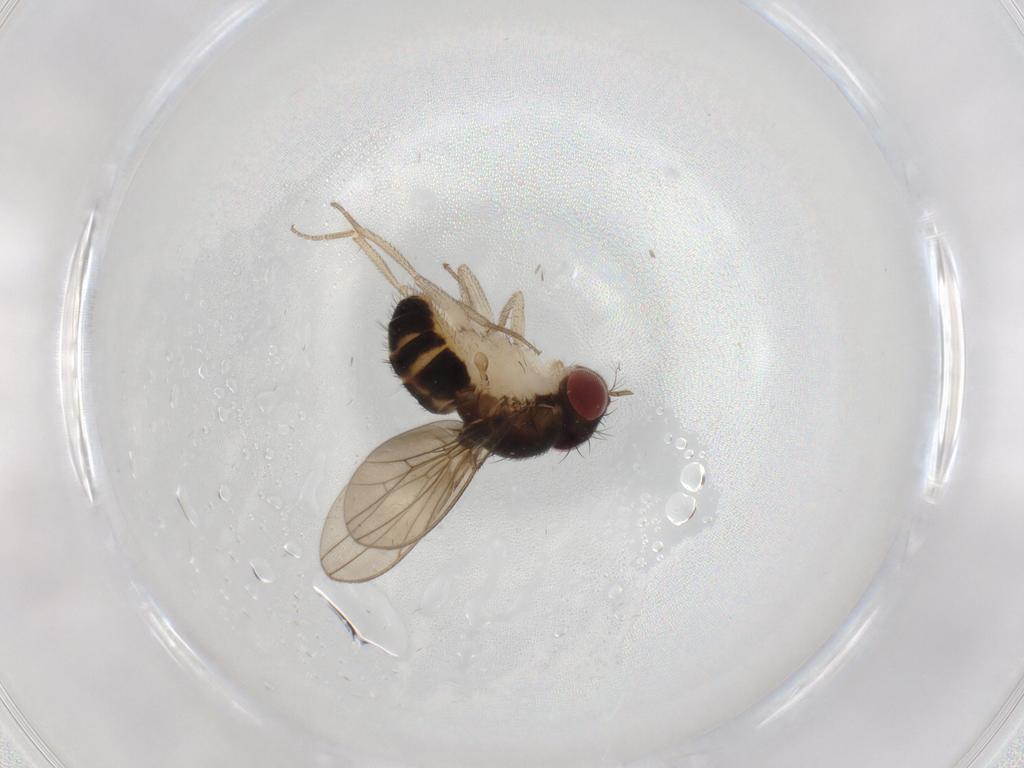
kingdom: Animalia
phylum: Arthropoda
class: Insecta
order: Diptera
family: Drosophilidae
